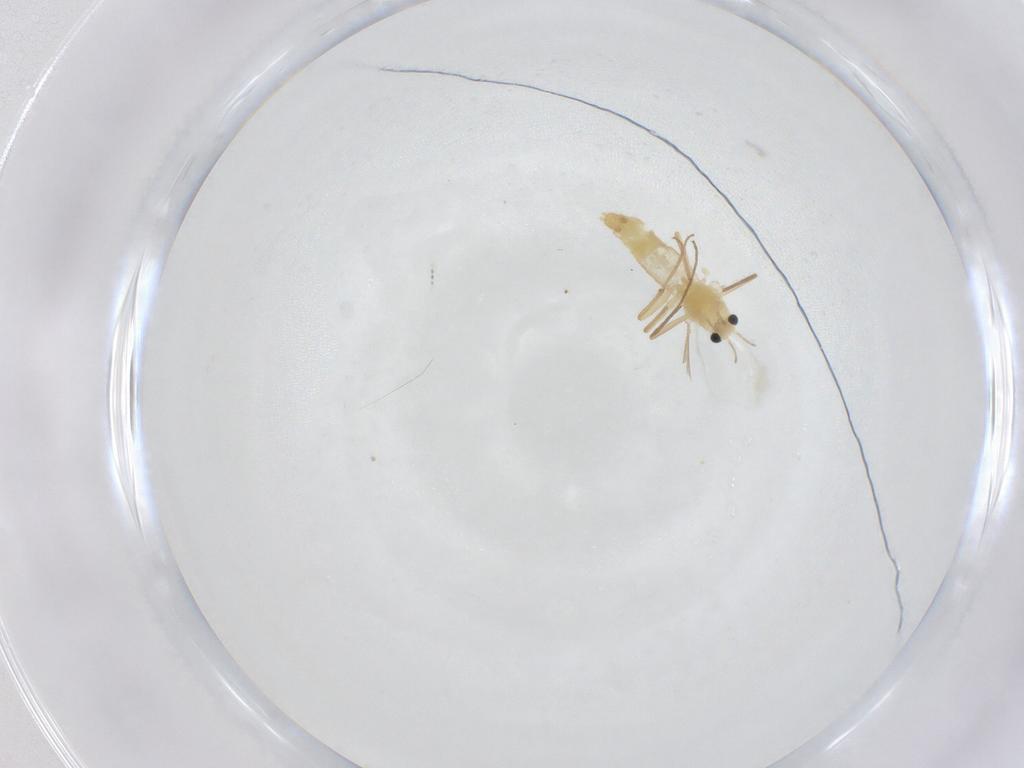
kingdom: Animalia
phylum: Arthropoda
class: Insecta
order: Diptera
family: Chironomidae
